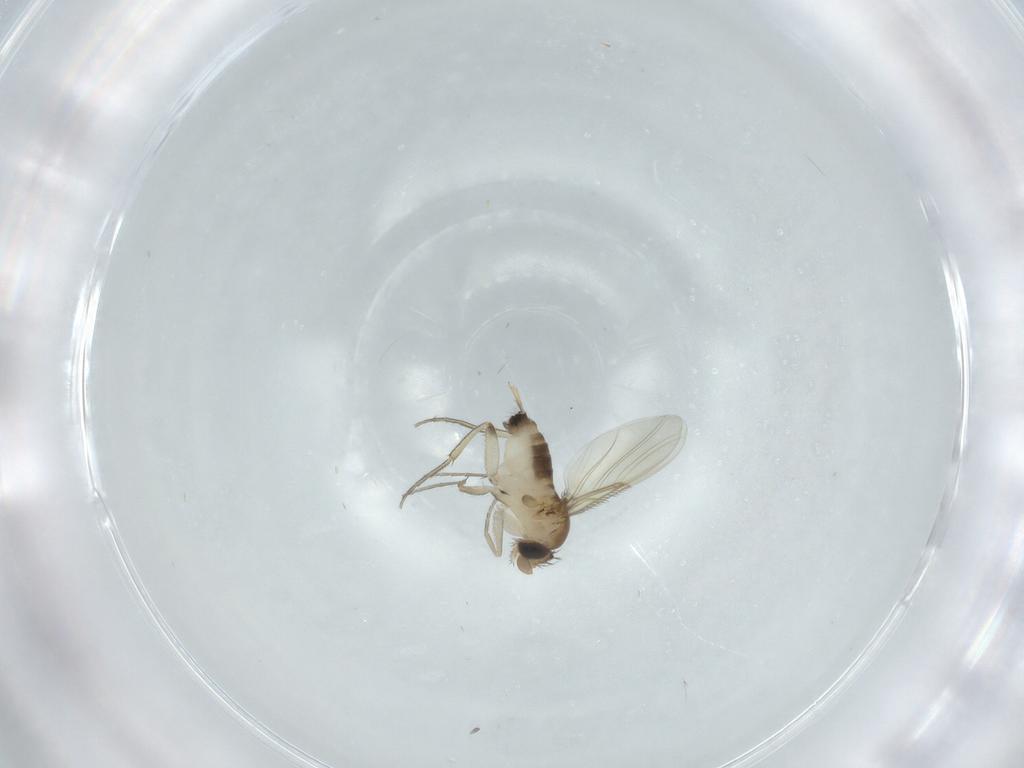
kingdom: Animalia
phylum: Arthropoda
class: Insecta
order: Diptera
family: Phoridae
